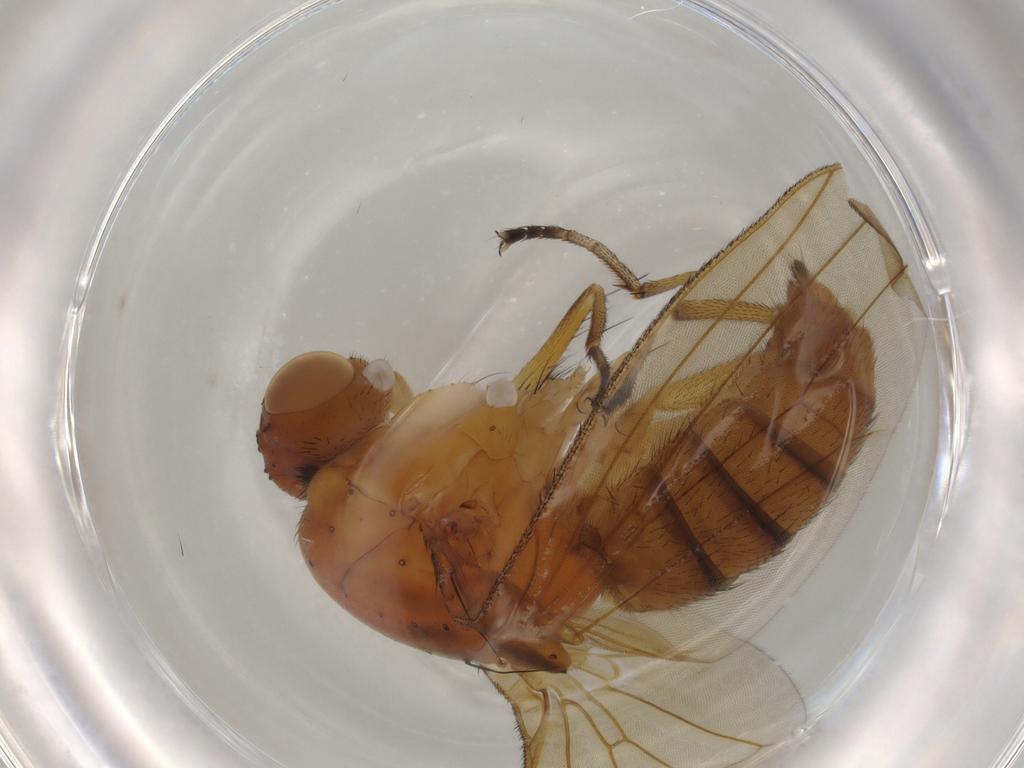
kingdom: Animalia
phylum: Arthropoda
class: Insecta
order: Diptera
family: Heleomyzidae
